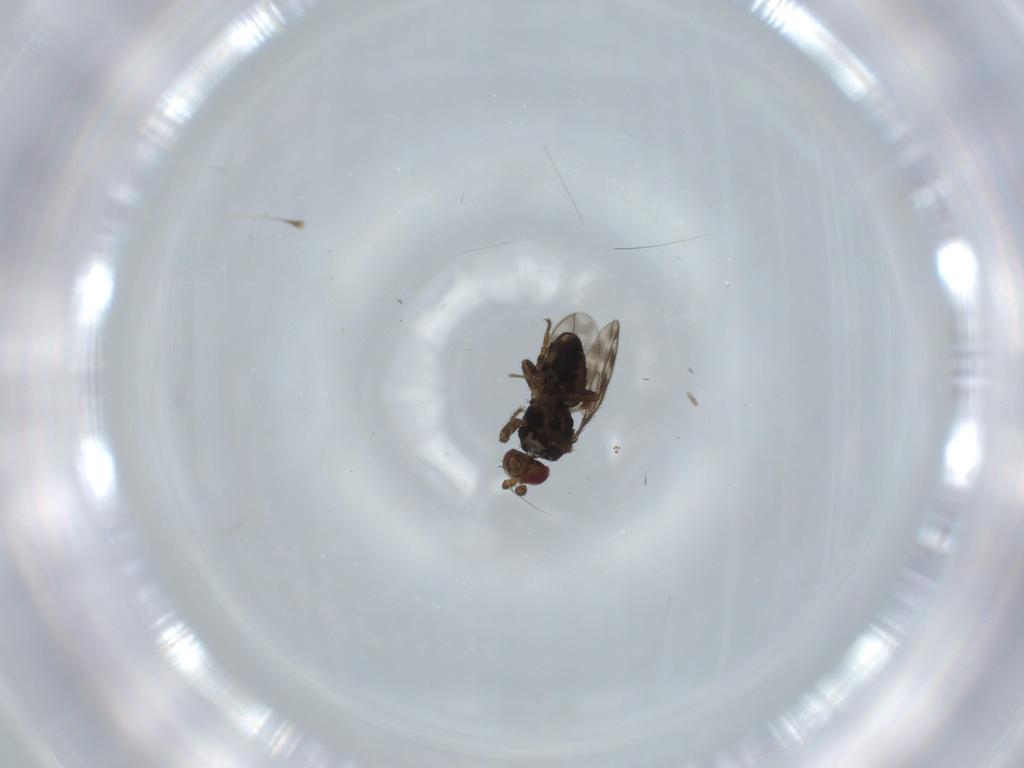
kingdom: Animalia
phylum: Arthropoda
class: Insecta
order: Diptera
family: Sphaeroceridae
